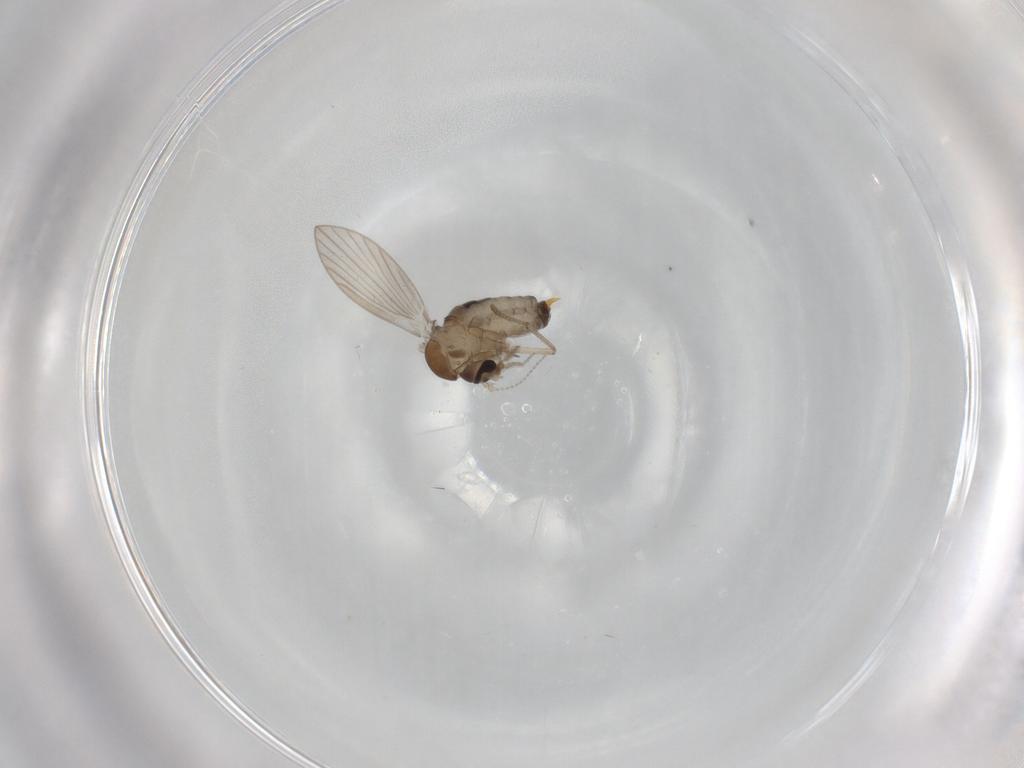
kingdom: Animalia
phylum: Arthropoda
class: Insecta
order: Diptera
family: Psychodidae
